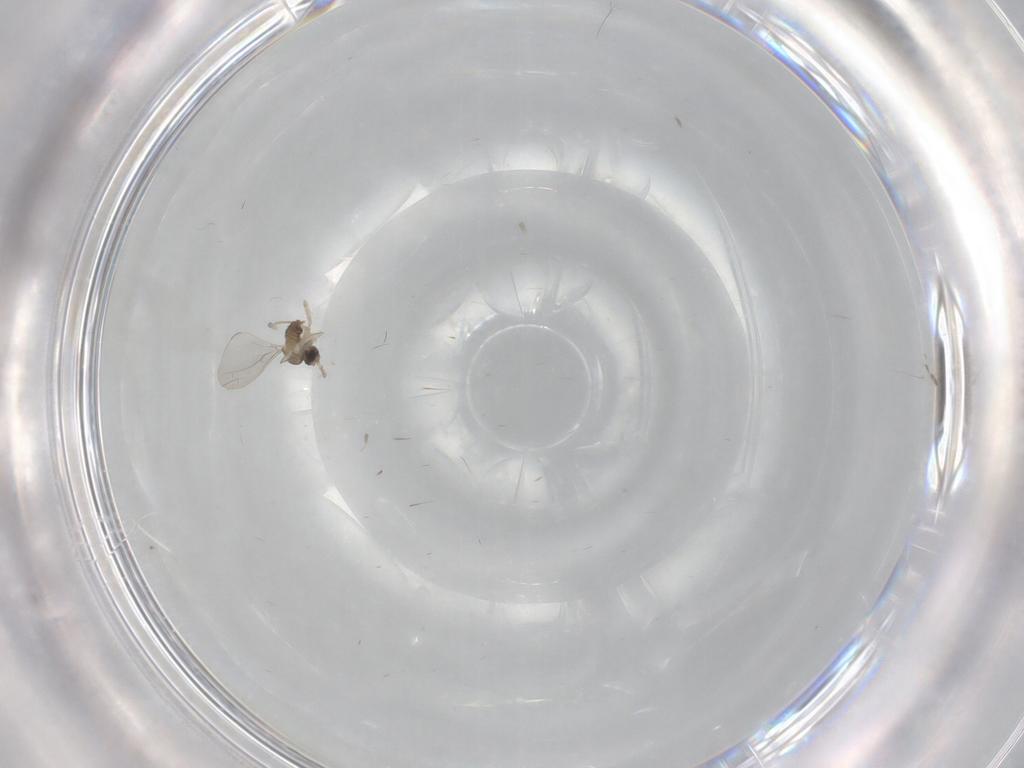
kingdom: Animalia
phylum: Arthropoda
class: Insecta
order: Diptera
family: Cecidomyiidae
